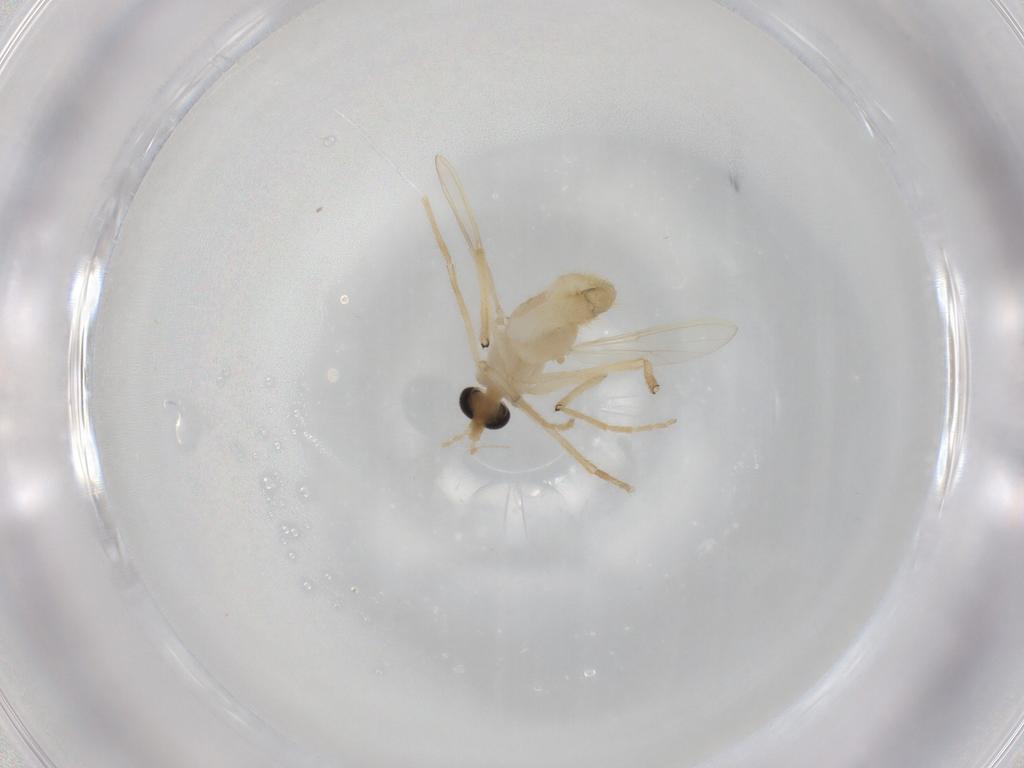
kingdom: Animalia
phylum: Arthropoda
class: Insecta
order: Diptera
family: Chironomidae
